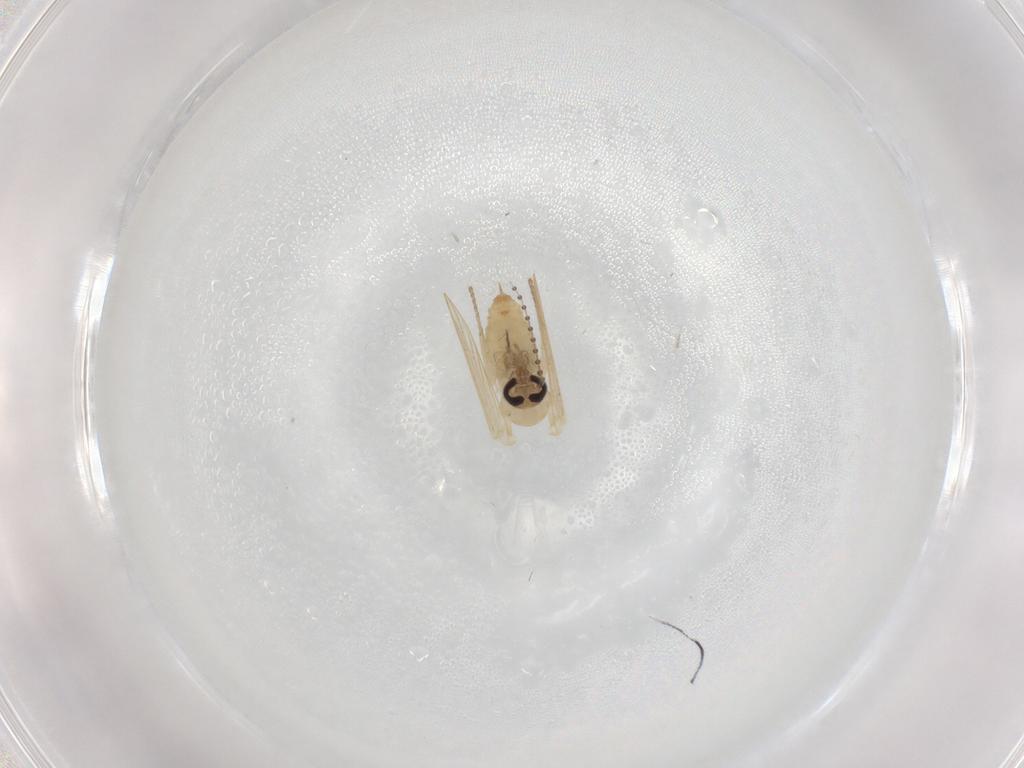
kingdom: Animalia
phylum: Arthropoda
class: Insecta
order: Diptera
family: Psychodidae
